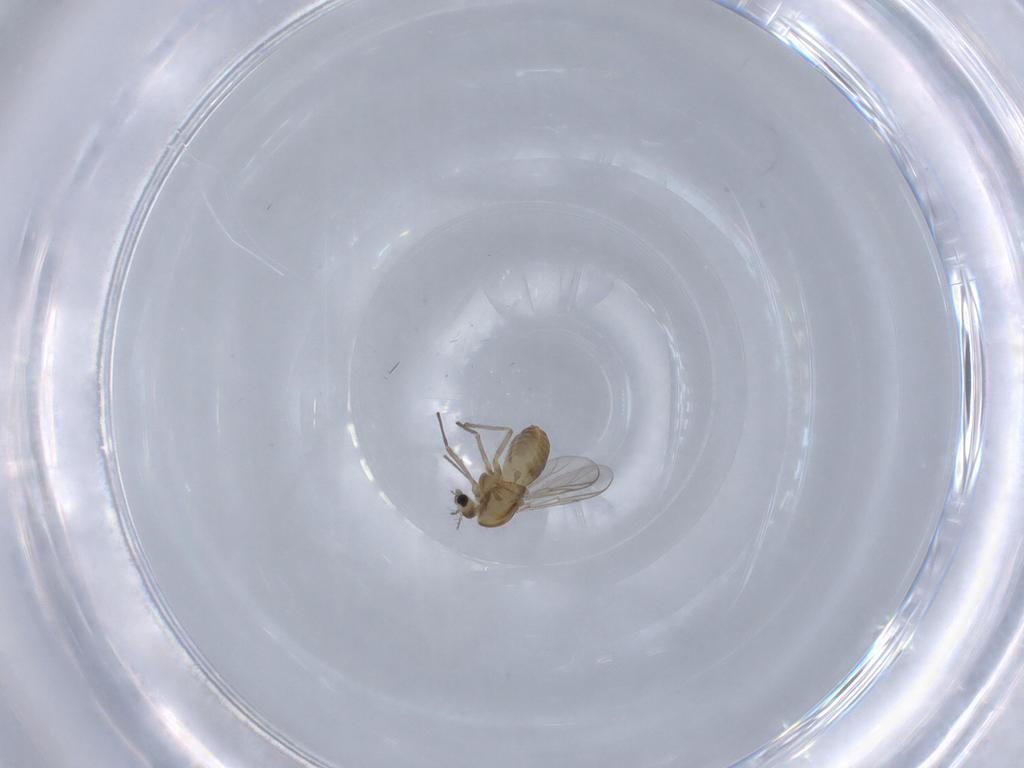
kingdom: Animalia
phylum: Arthropoda
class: Insecta
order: Diptera
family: Chironomidae
